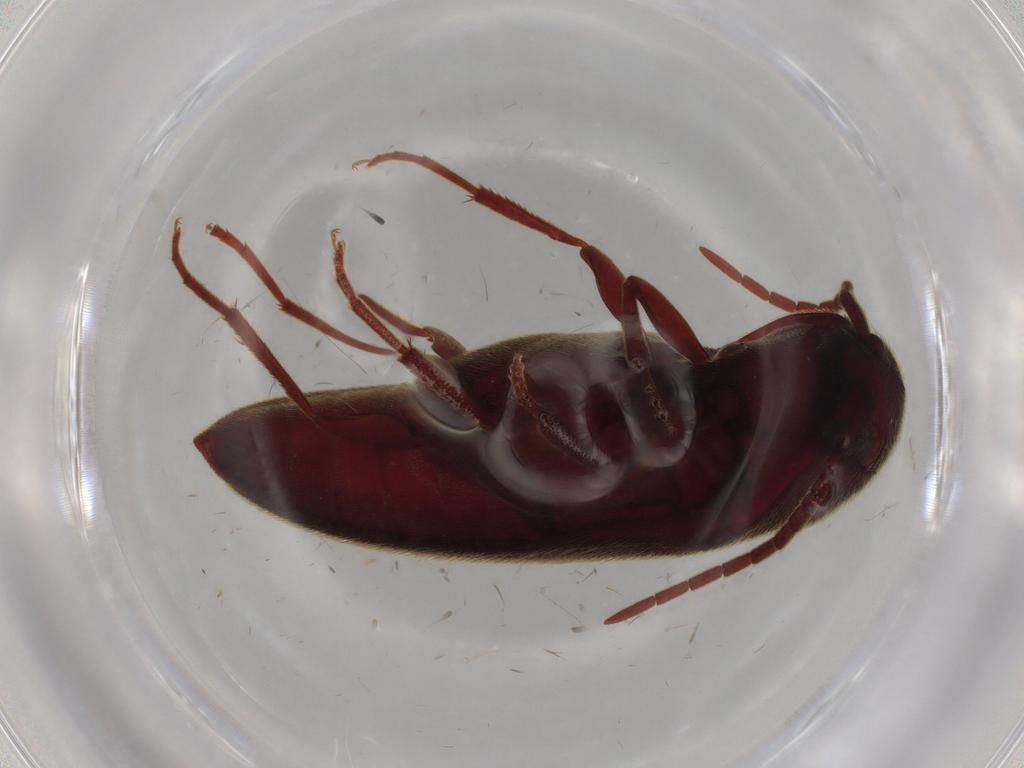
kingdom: Animalia
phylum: Arthropoda
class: Insecta
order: Coleoptera
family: Eucnemidae
